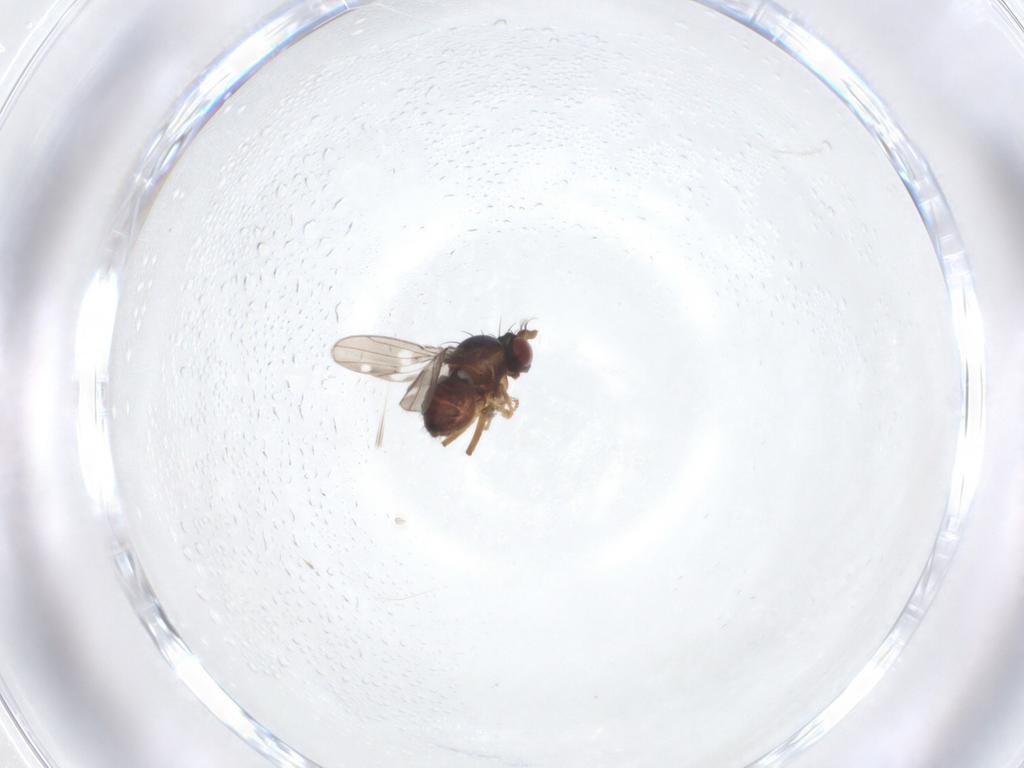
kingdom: Animalia
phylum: Arthropoda
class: Insecta
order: Diptera
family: Ephydridae
